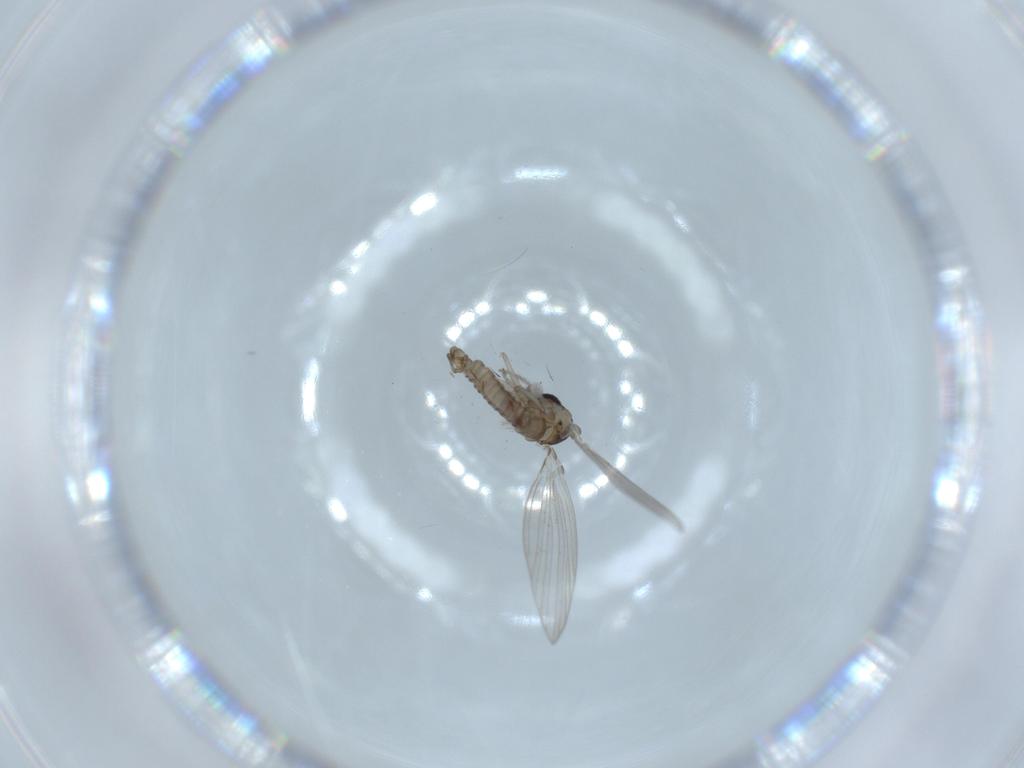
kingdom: Animalia
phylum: Arthropoda
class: Insecta
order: Diptera
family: Psychodidae
